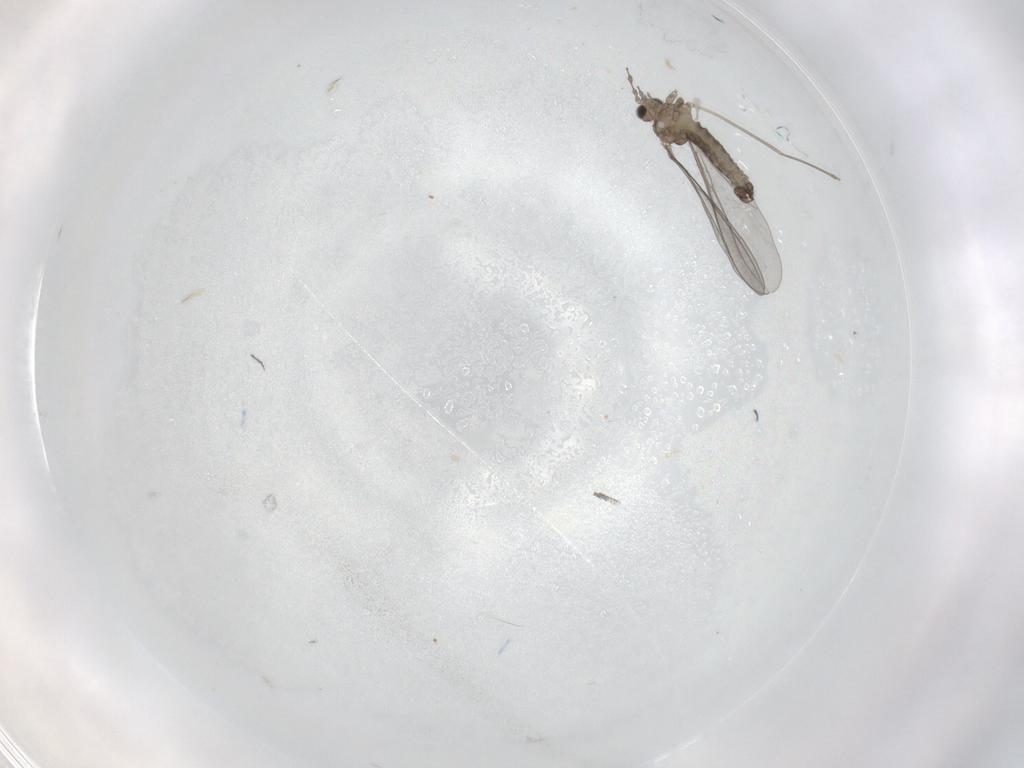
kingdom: Animalia
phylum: Arthropoda
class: Insecta
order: Diptera
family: Cecidomyiidae
